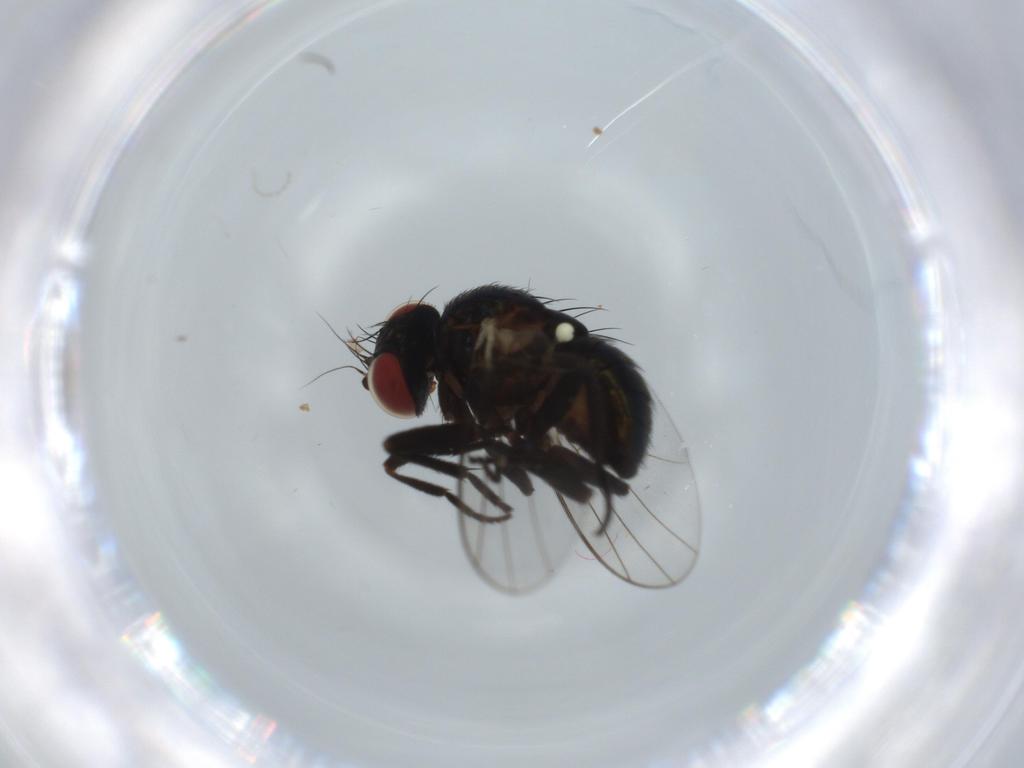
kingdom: Animalia
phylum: Arthropoda
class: Insecta
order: Diptera
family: Agromyzidae
